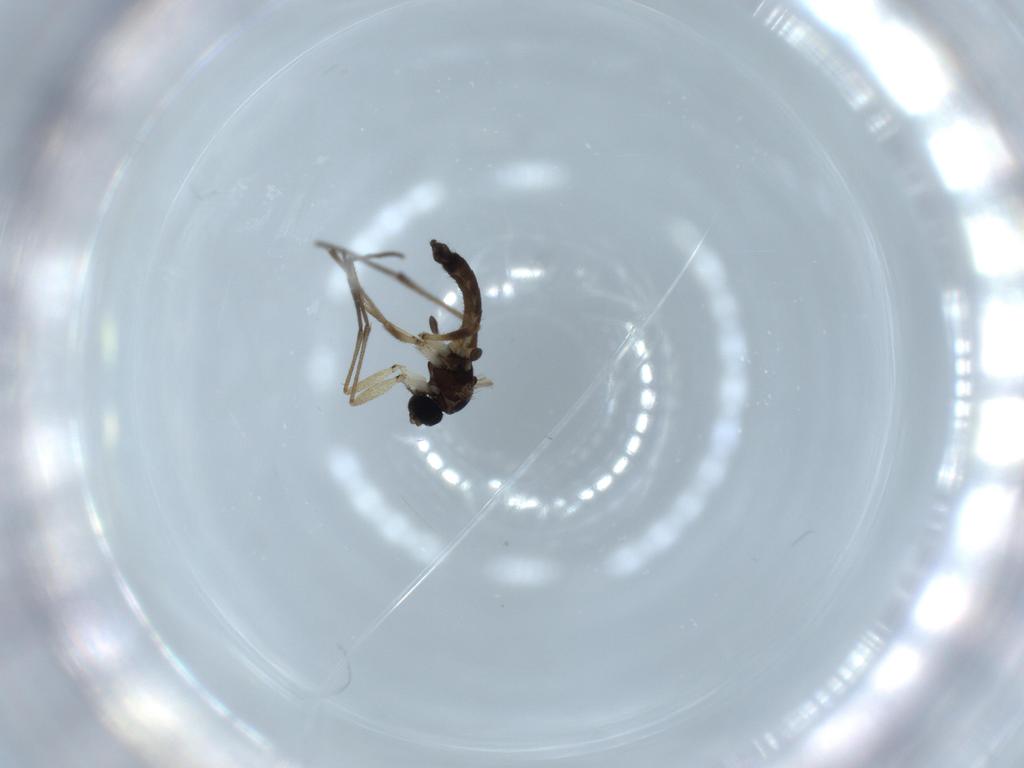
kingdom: Animalia
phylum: Arthropoda
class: Insecta
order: Diptera
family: Sciaridae
